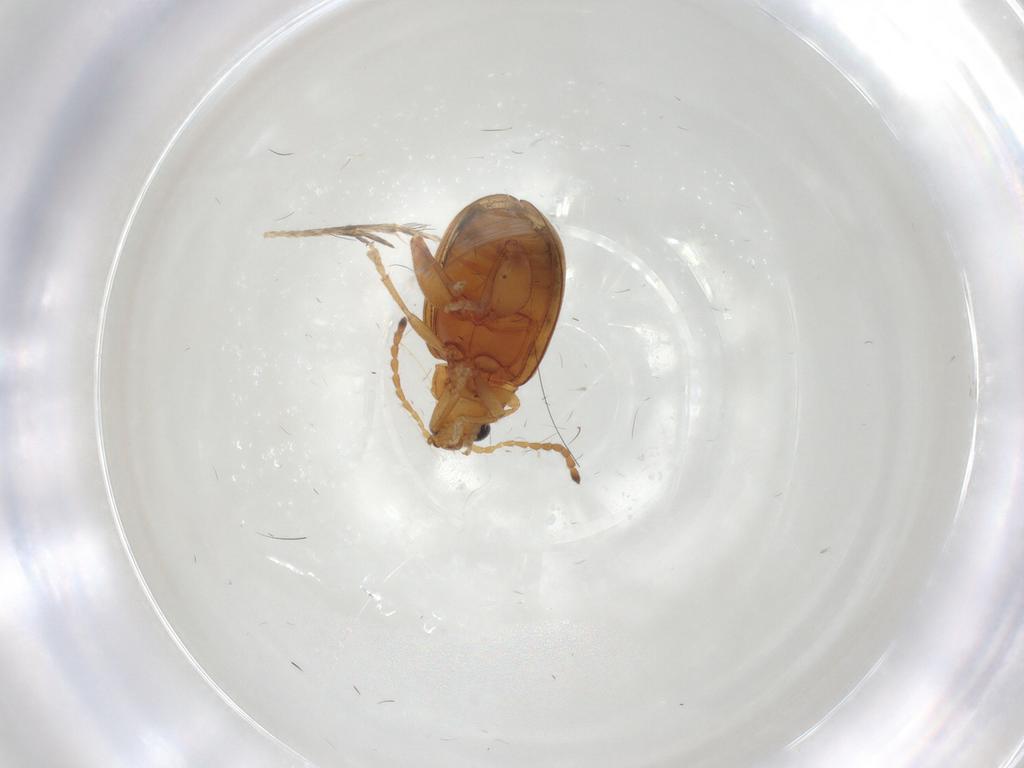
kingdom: Animalia
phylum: Arthropoda
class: Insecta
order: Coleoptera
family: Chrysomelidae
